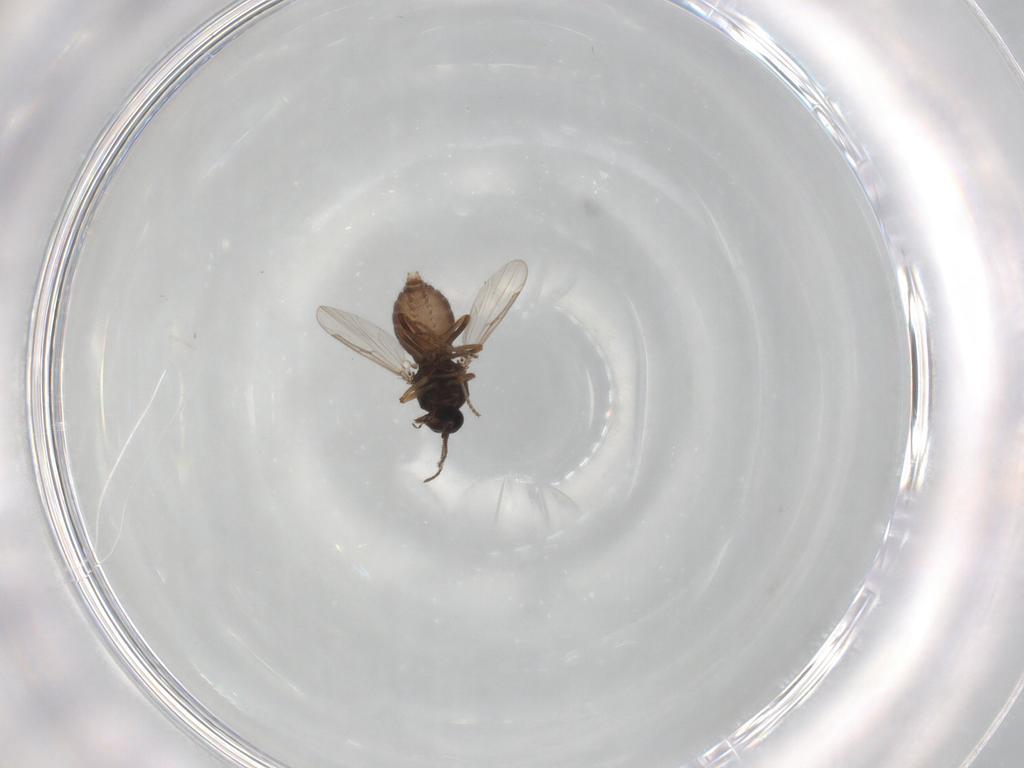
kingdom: Animalia
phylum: Arthropoda
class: Insecta
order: Diptera
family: Ceratopogonidae
